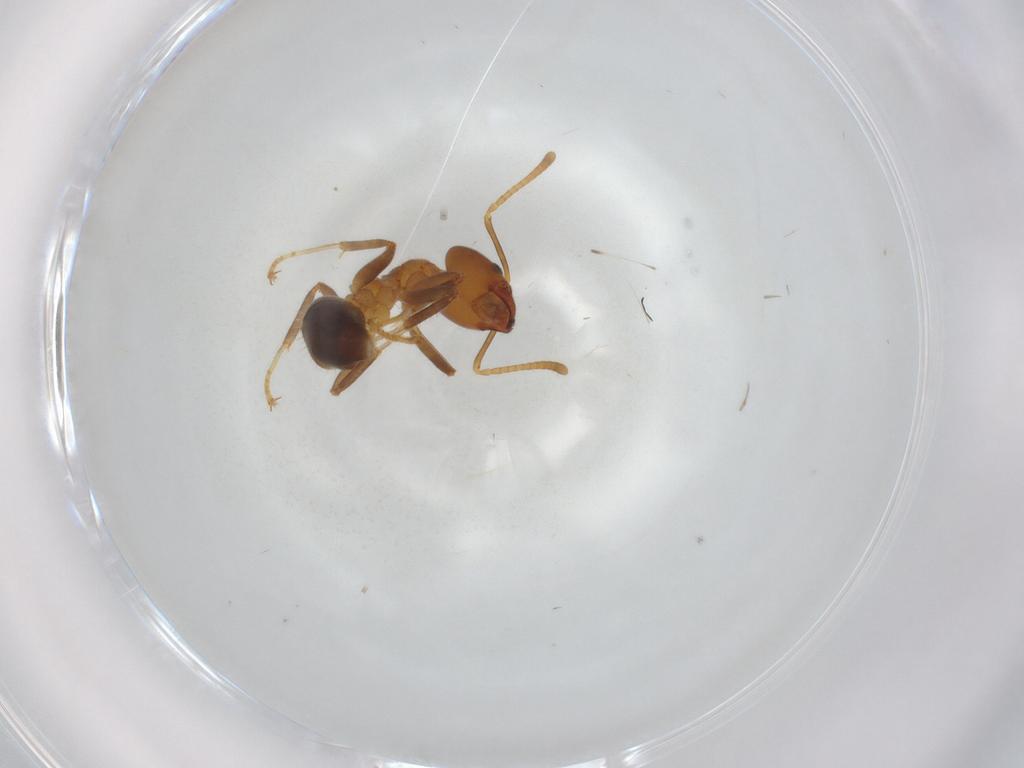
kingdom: Animalia
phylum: Arthropoda
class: Insecta
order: Hymenoptera
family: Formicidae
